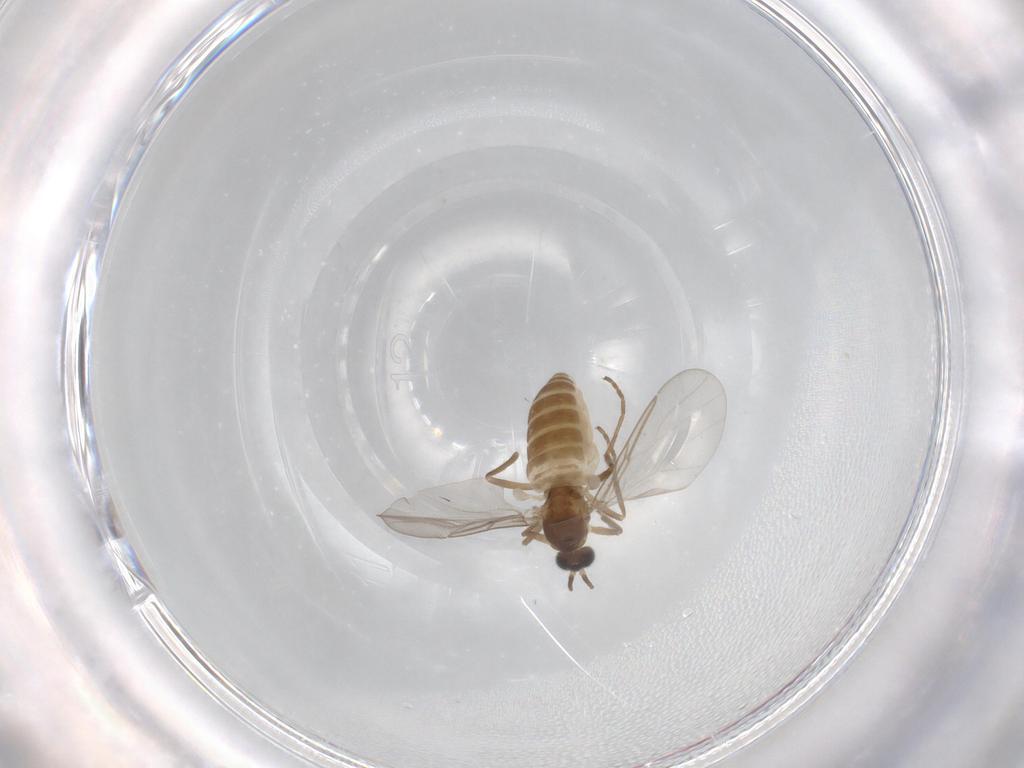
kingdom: Animalia
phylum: Arthropoda
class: Insecta
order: Diptera
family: Cecidomyiidae
